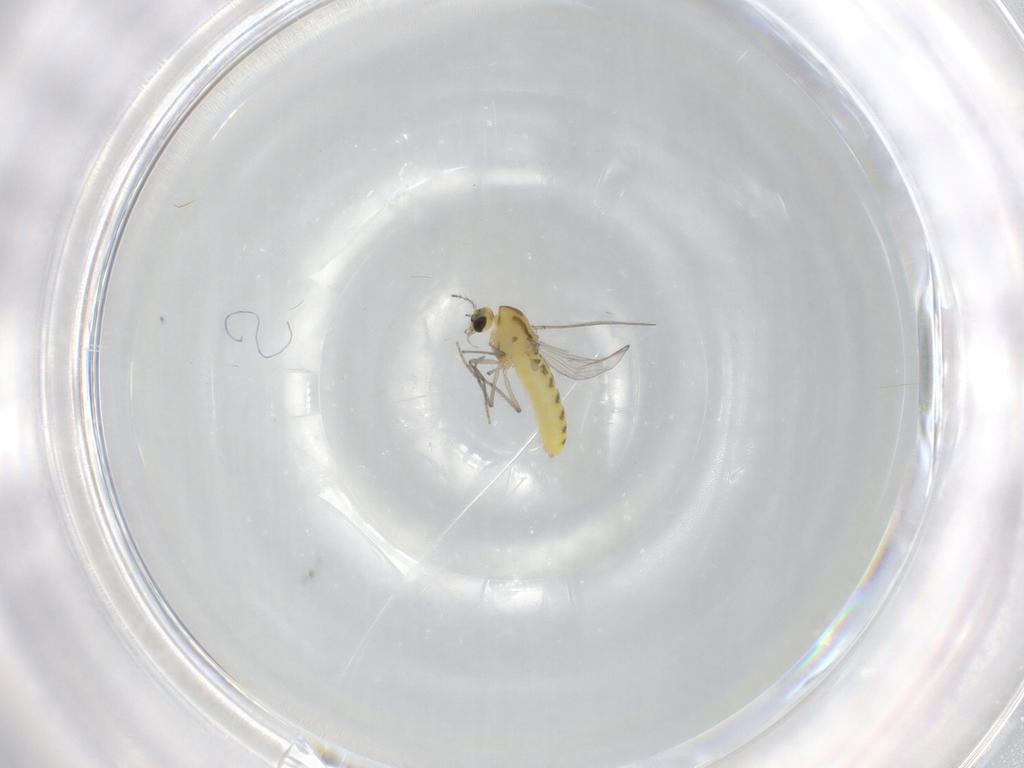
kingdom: Animalia
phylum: Arthropoda
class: Insecta
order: Diptera
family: Chironomidae
